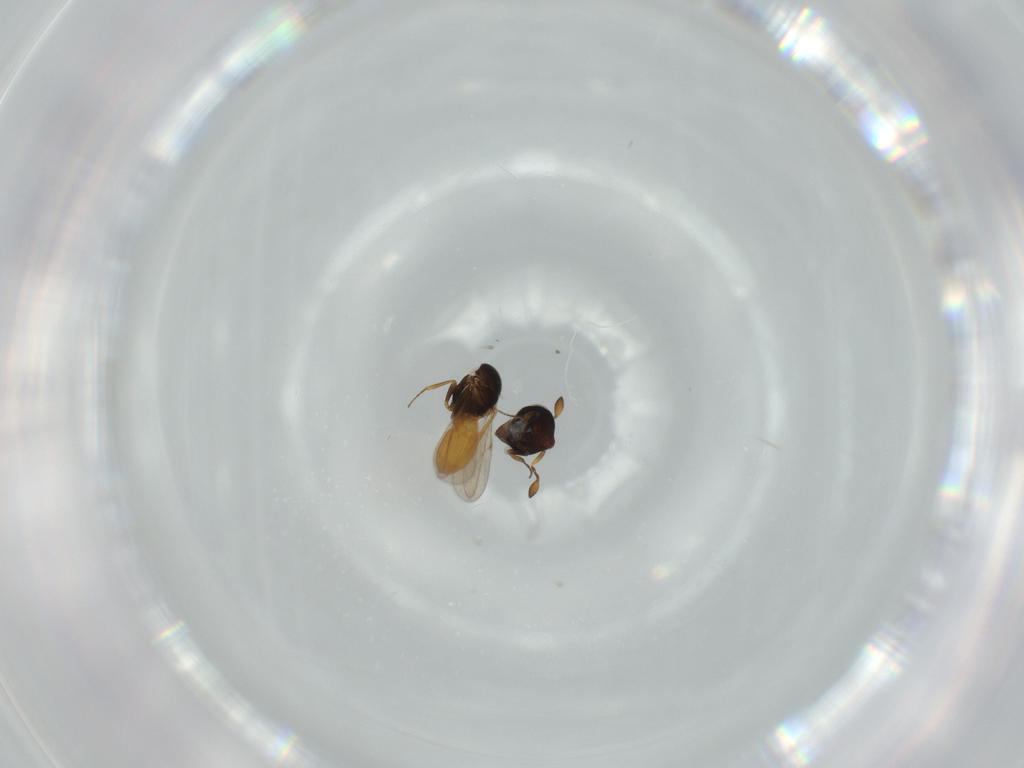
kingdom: Animalia
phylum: Arthropoda
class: Insecta
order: Hymenoptera
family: Scelionidae
